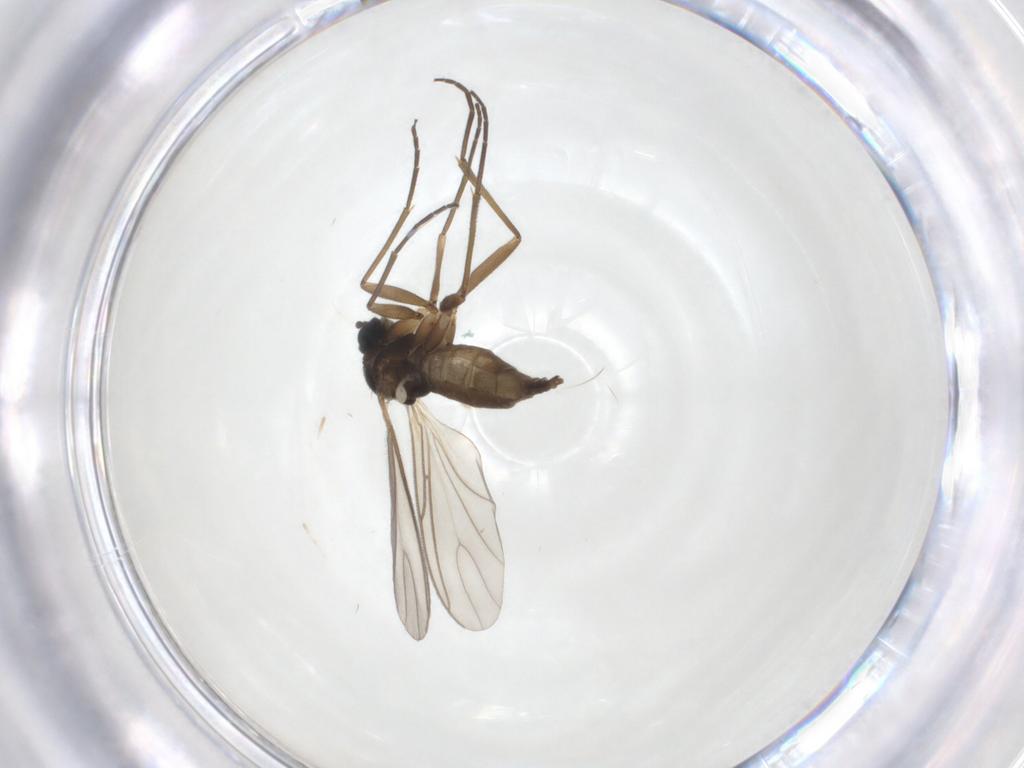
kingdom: Animalia
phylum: Arthropoda
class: Insecta
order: Diptera
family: Sciaridae
